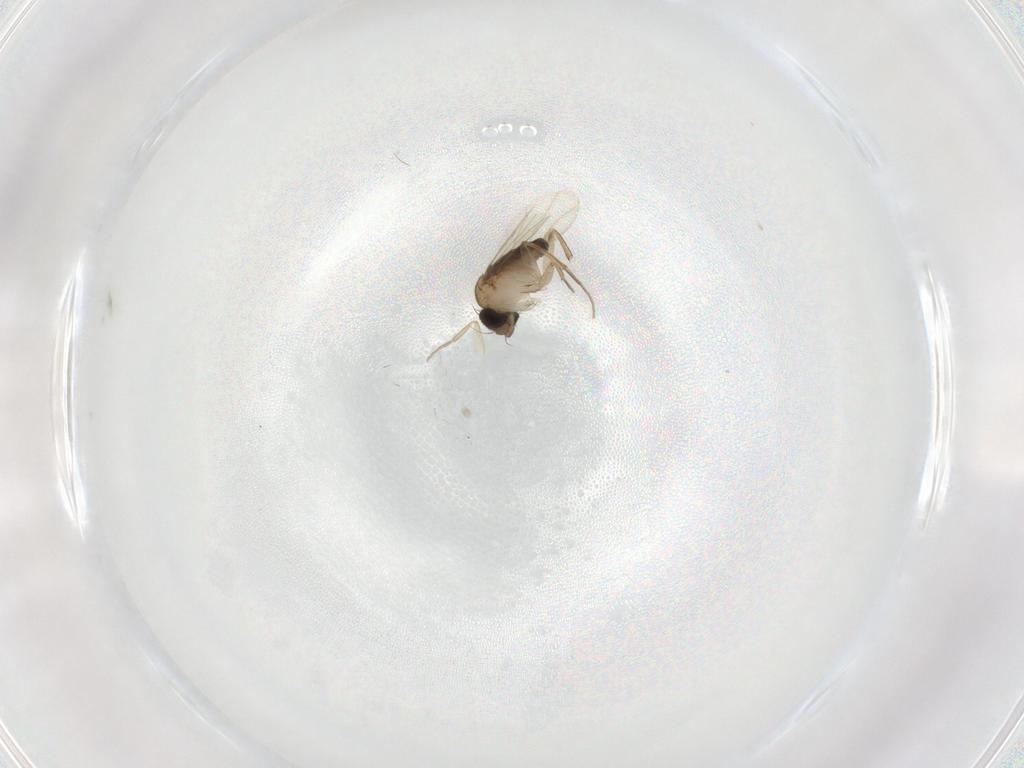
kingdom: Animalia
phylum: Arthropoda
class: Insecta
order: Diptera
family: Phoridae
